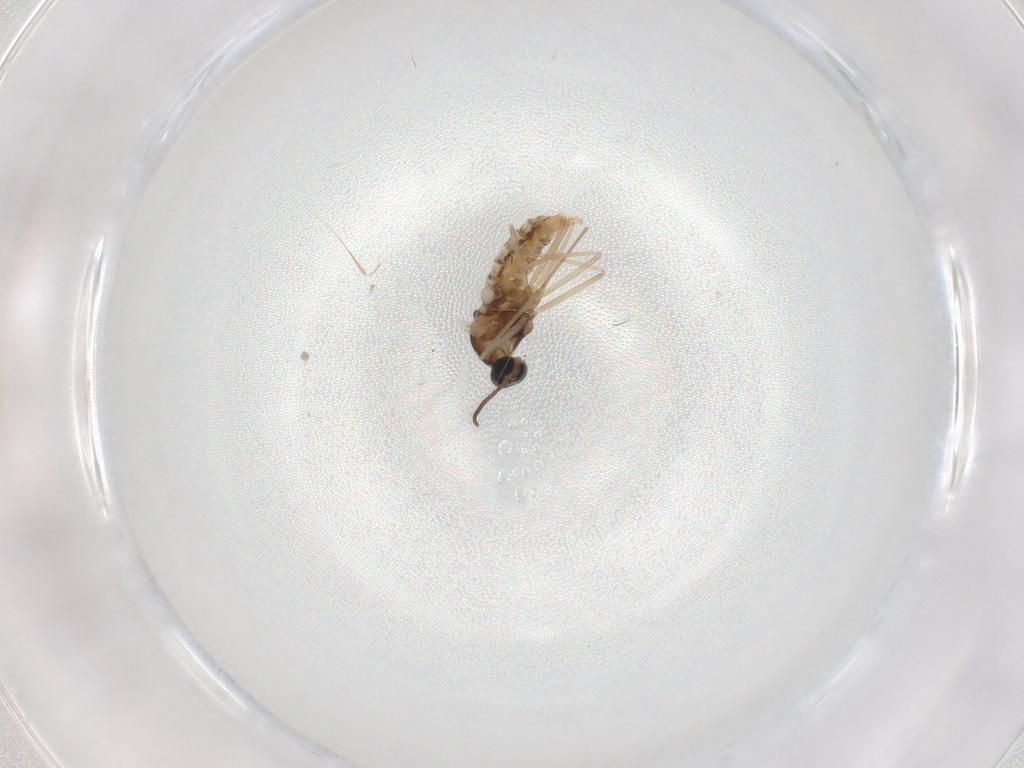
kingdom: Animalia
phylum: Arthropoda
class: Insecta
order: Diptera
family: Cecidomyiidae
